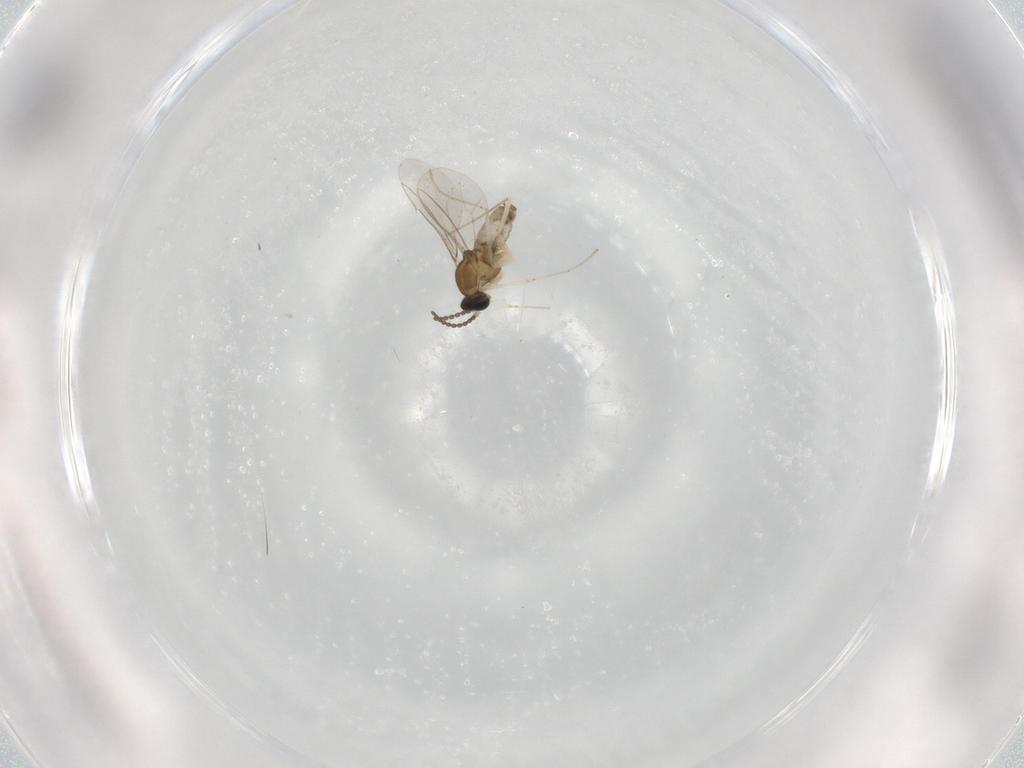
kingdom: Animalia
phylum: Arthropoda
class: Insecta
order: Diptera
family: Cecidomyiidae
